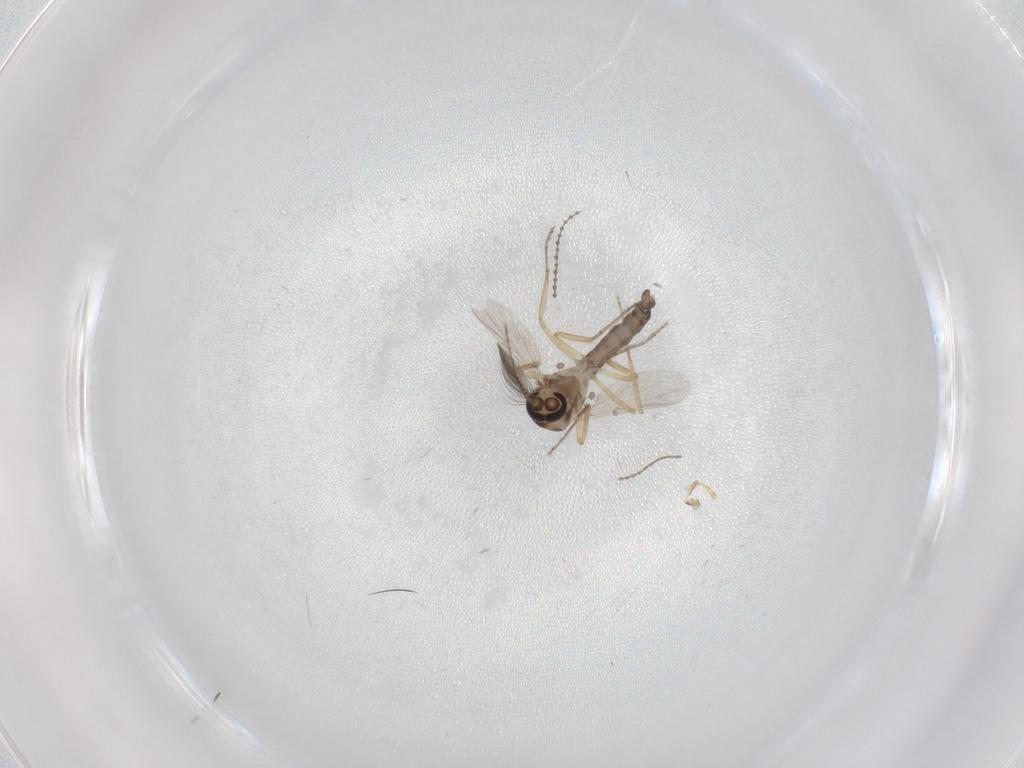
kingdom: Animalia
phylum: Arthropoda
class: Insecta
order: Diptera
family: Ceratopogonidae
